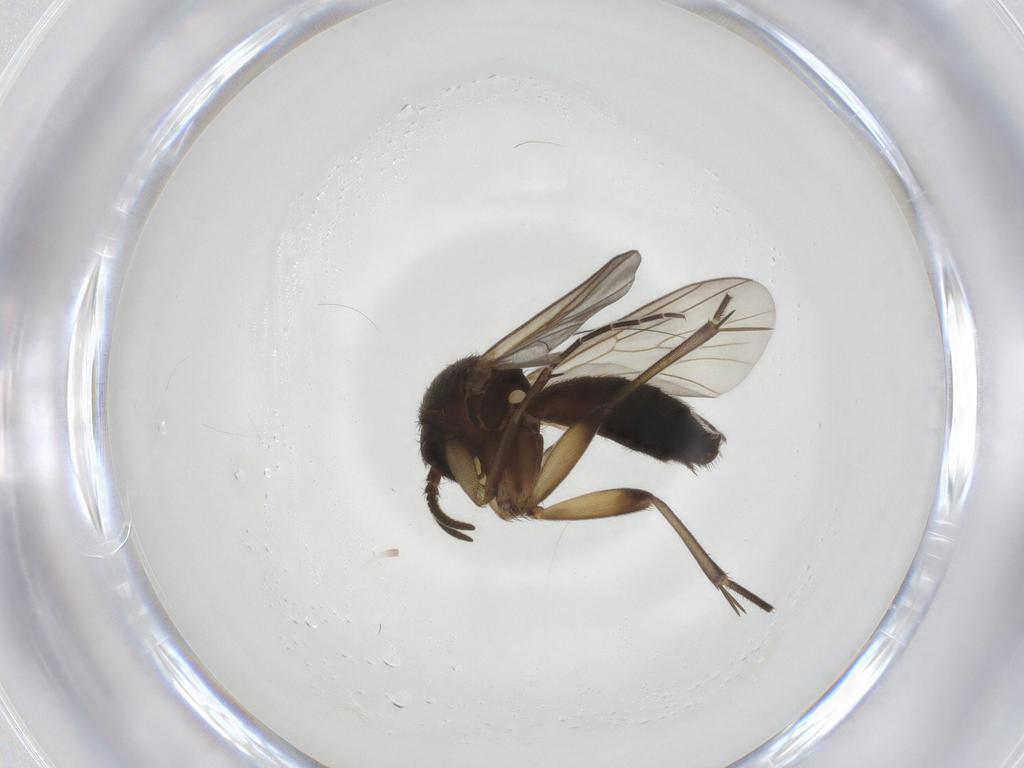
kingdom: Animalia
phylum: Arthropoda
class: Insecta
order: Diptera
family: Mycetophilidae
